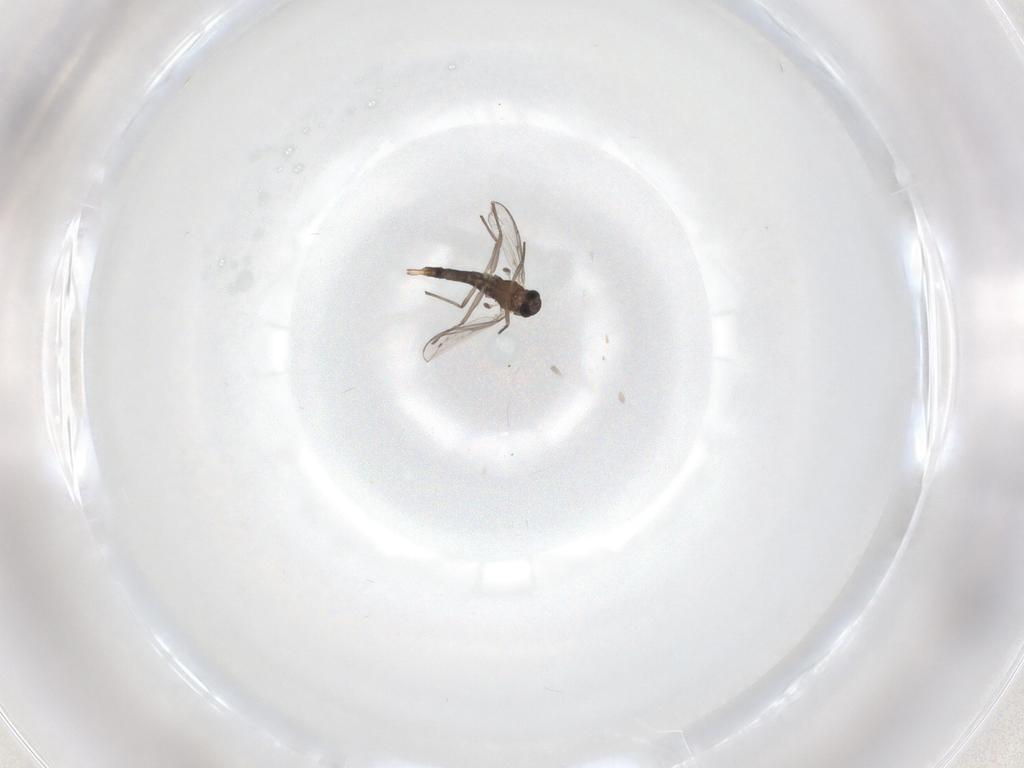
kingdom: Animalia
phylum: Arthropoda
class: Insecta
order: Diptera
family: Chironomidae
